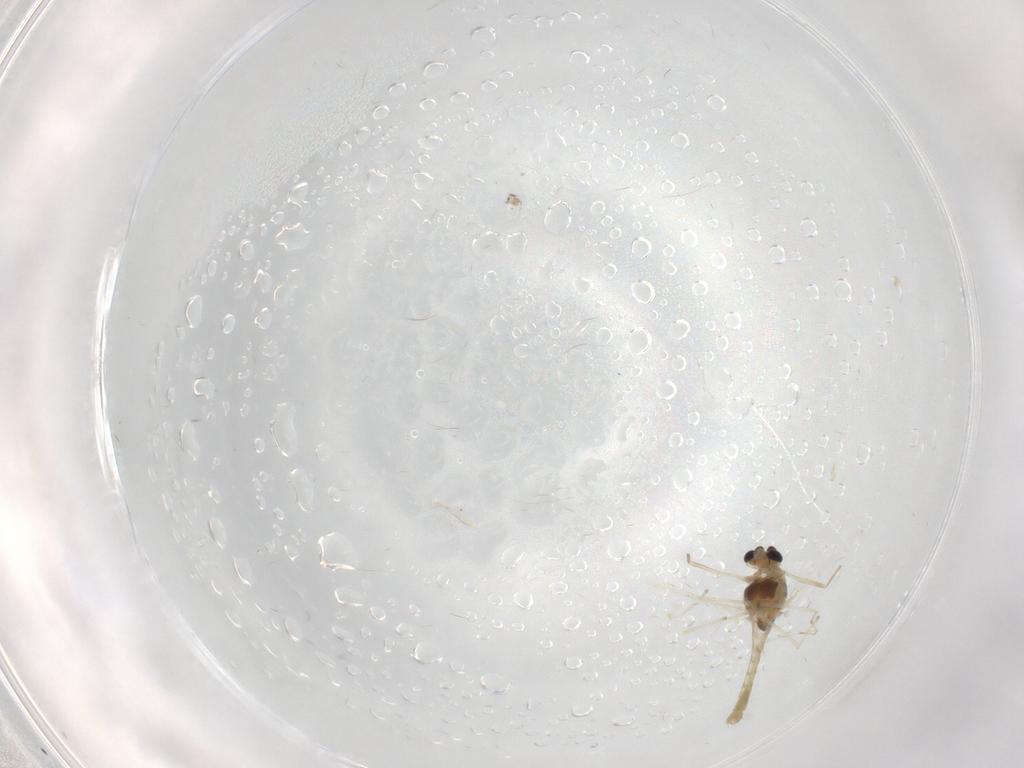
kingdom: Animalia
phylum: Arthropoda
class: Insecta
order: Diptera
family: Chironomidae
